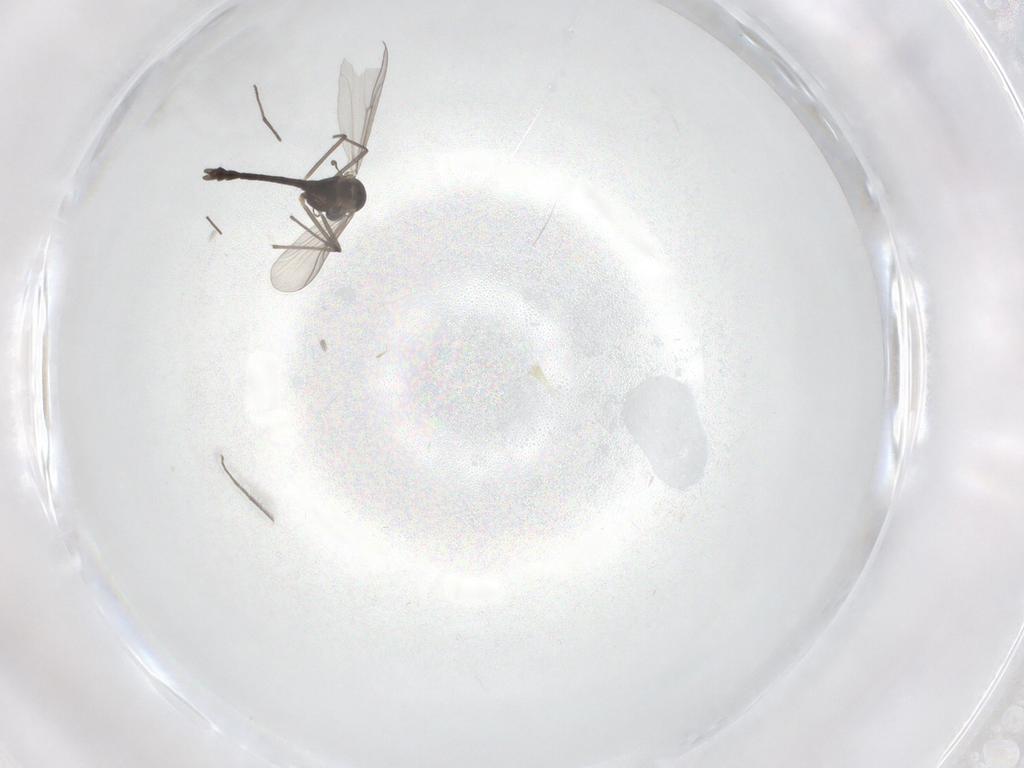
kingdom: Animalia
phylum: Arthropoda
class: Insecta
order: Diptera
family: Chironomidae
